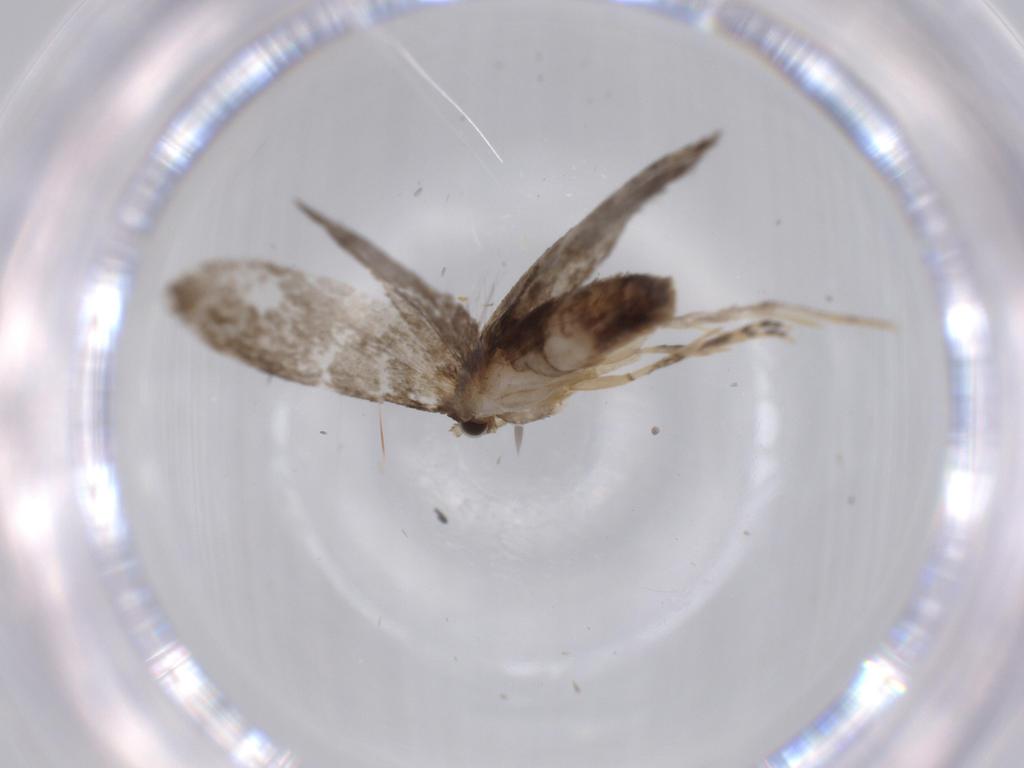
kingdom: Animalia
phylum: Arthropoda
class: Insecta
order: Lepidoptera
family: Tineidae
